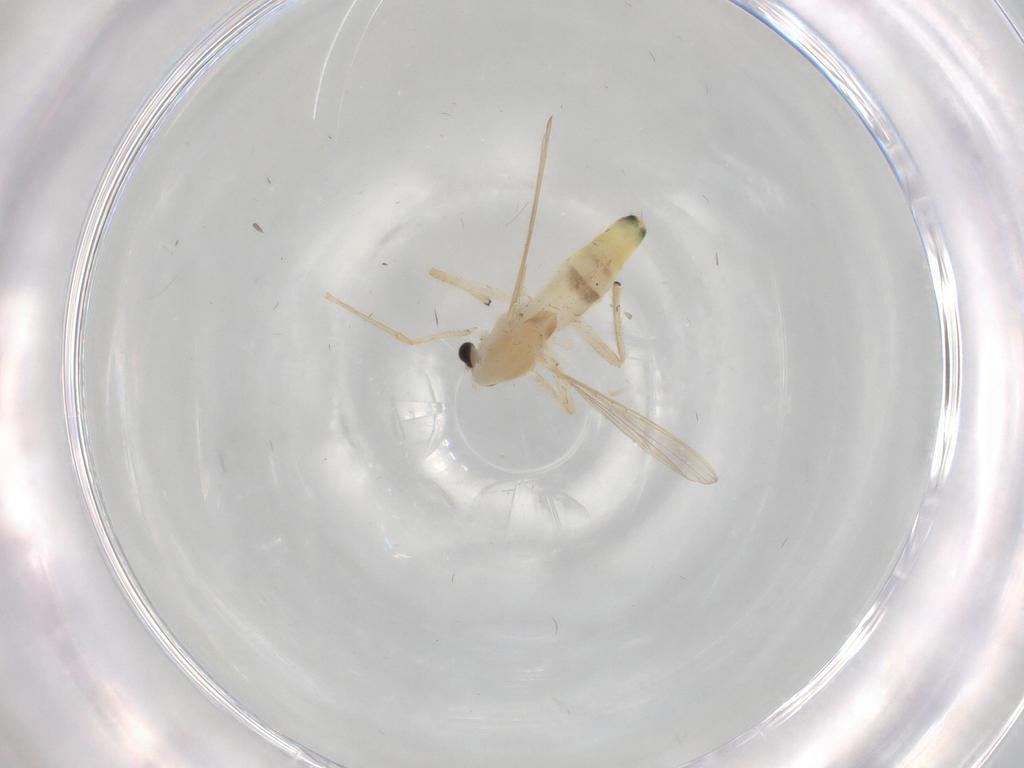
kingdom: Animalia
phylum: Arthropoda
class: Insecta
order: Diptera
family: Chironomidae
